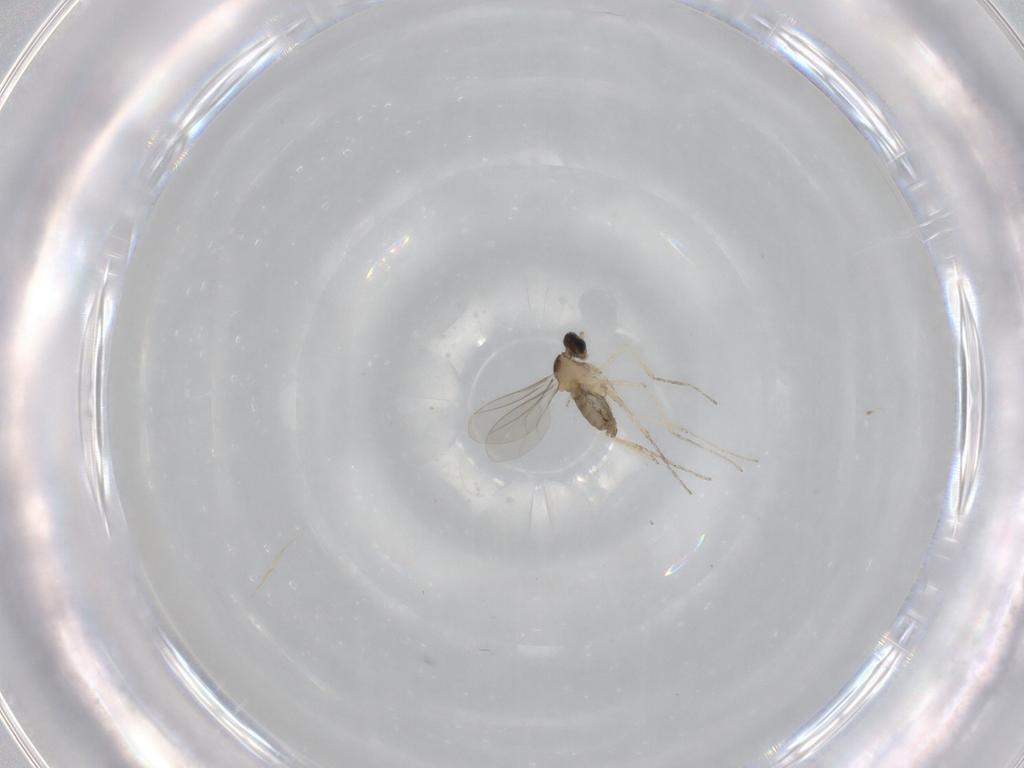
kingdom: Animalia
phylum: Arthropoda
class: Insecta
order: Diptera
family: Cecidomyiidae
